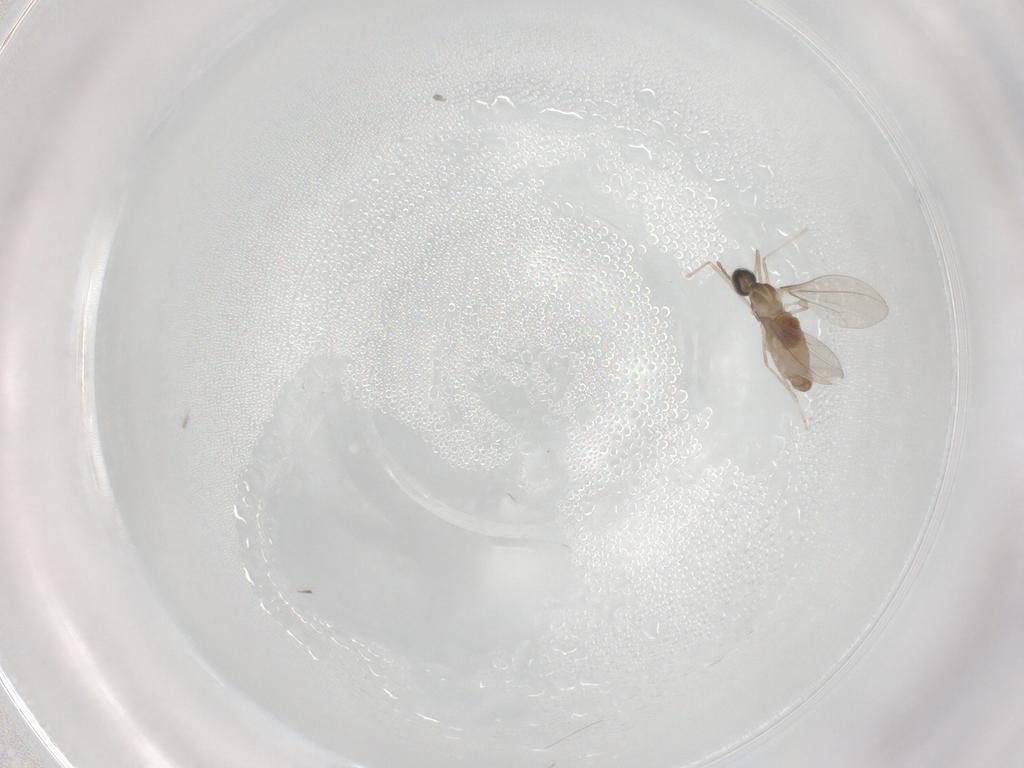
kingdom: Animalia
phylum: Arthropoda
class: Insecta
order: Diptera
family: Cecidomyiidae
